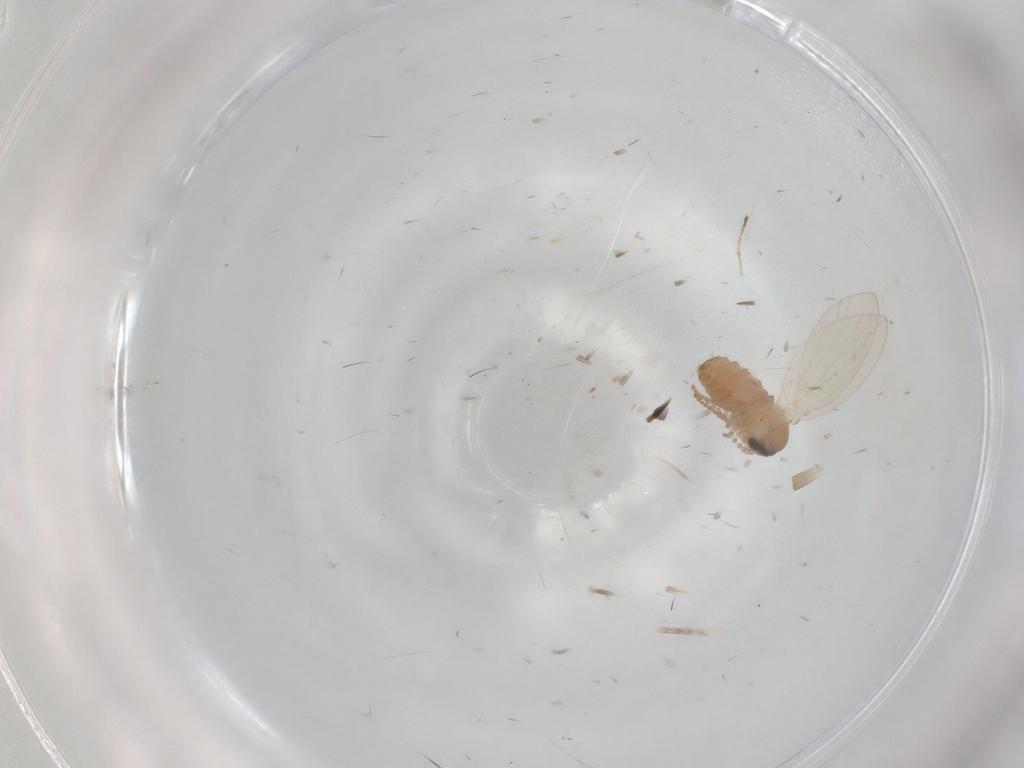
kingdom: Animalia
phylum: Arthropoda
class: Insecta
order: Diptera
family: Psychodidae
